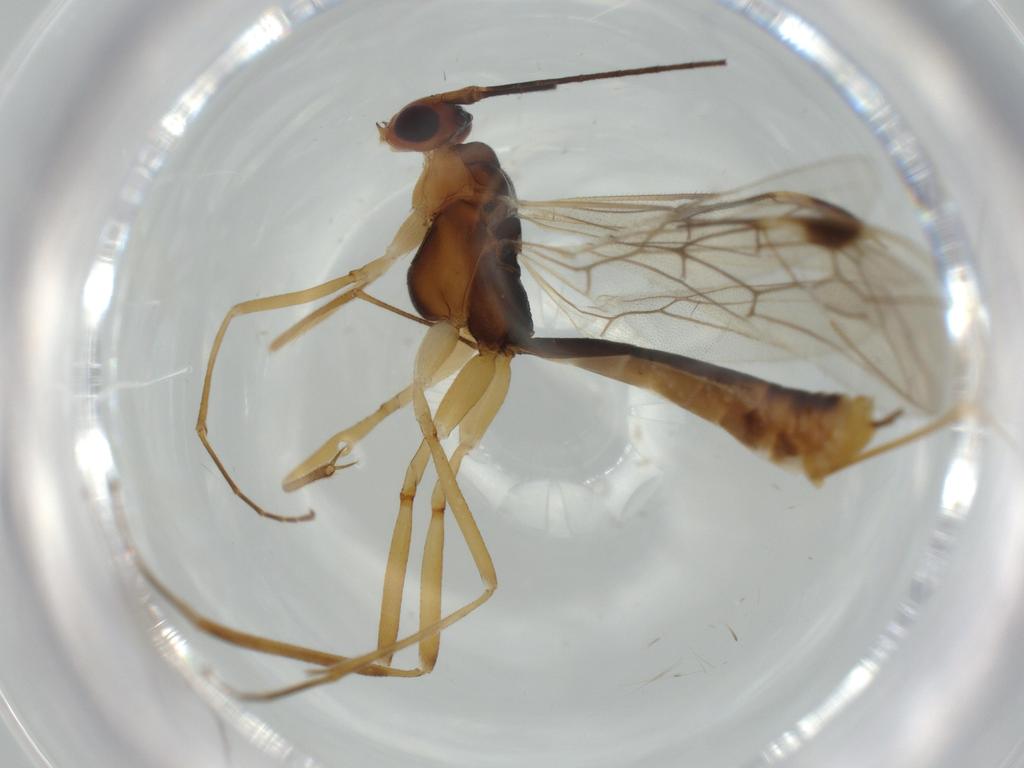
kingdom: Animalia
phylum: Arthropoda
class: Insecta
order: Hymenoptera
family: Braconidae
